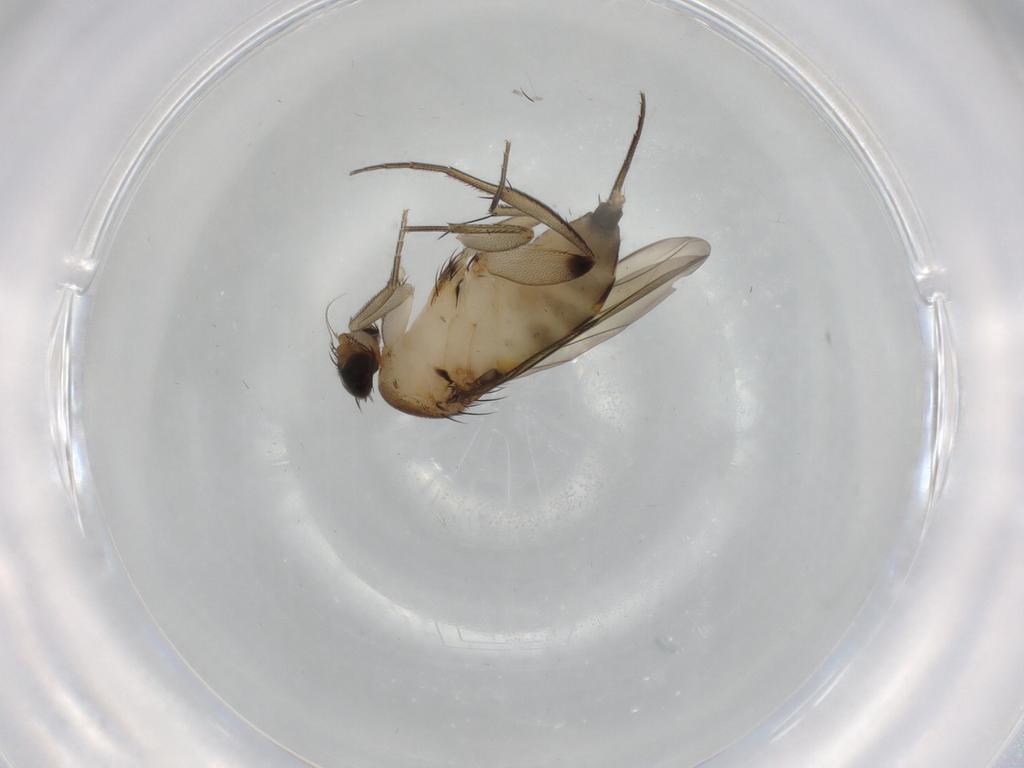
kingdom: Animalia
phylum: Arthropoda
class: Insecta
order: Diptera
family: Phoridae
